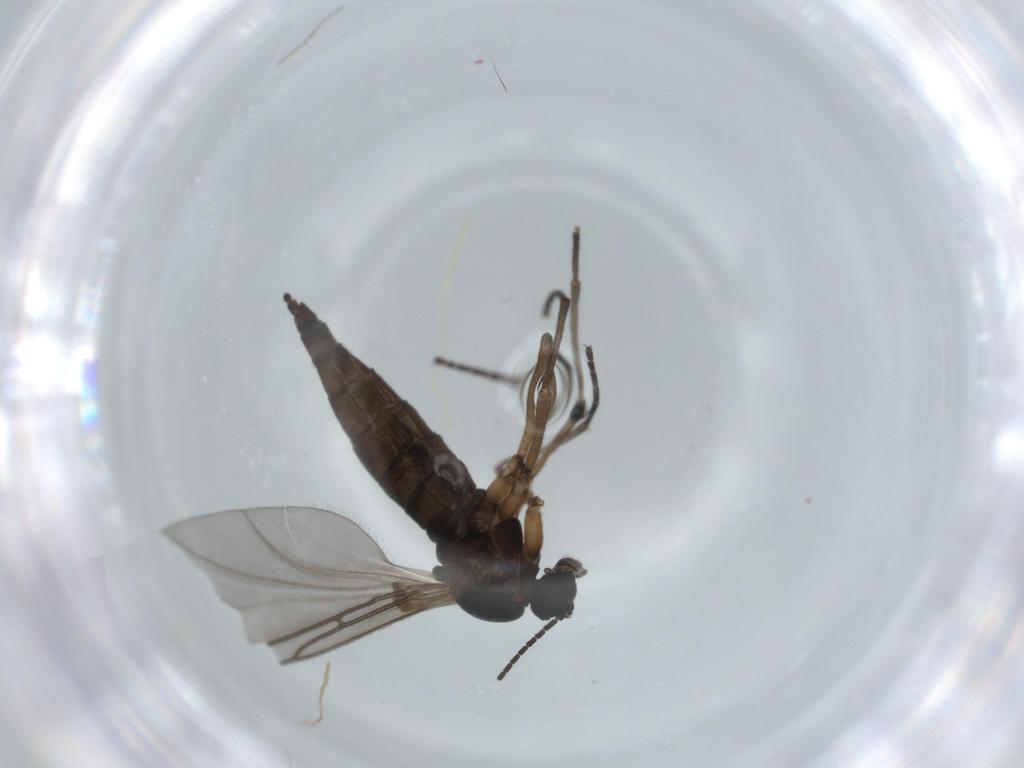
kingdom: Animalia
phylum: Arthropoda
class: Insecta
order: Diptera
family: Sciaridae
